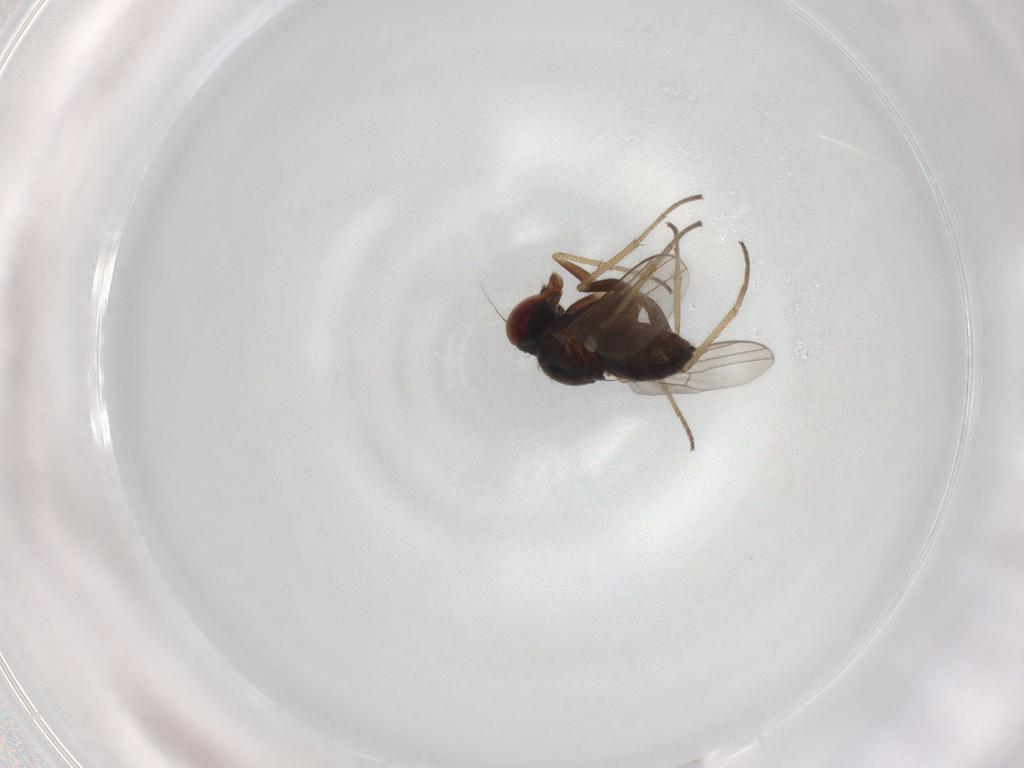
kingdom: Animalia
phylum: Arthropoda
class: Insecta
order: Diptera
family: Dolichopodidae
